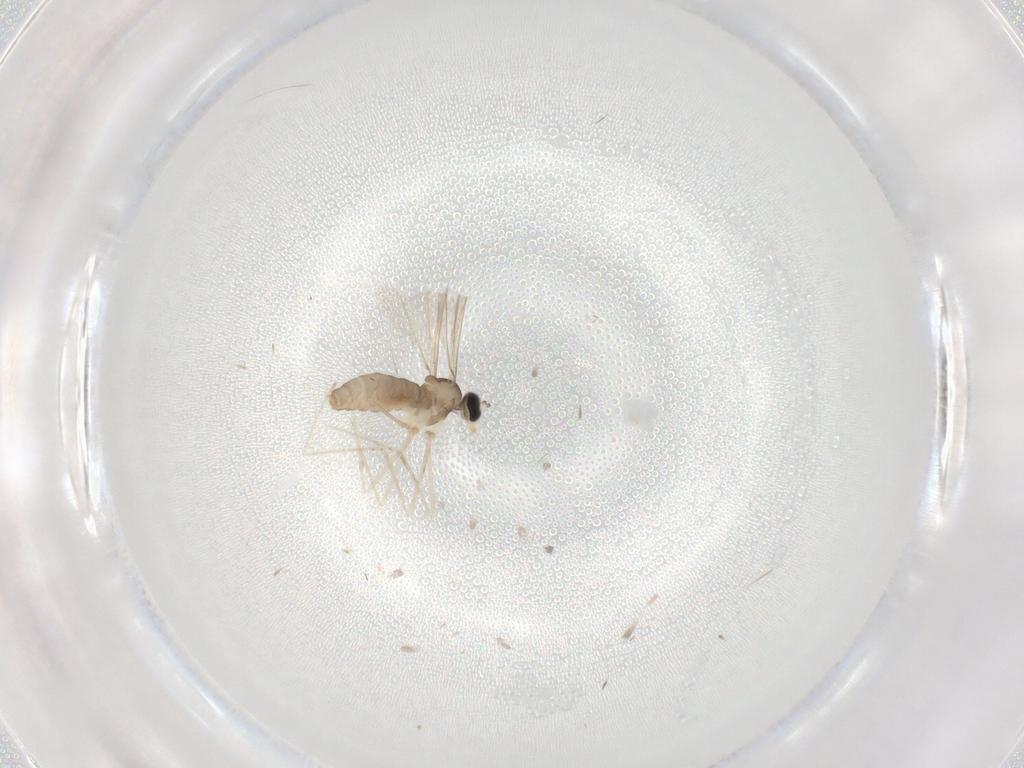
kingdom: Animalia
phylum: Arthropoda
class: Insecta
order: Diptera
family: Cecidomyiidae
